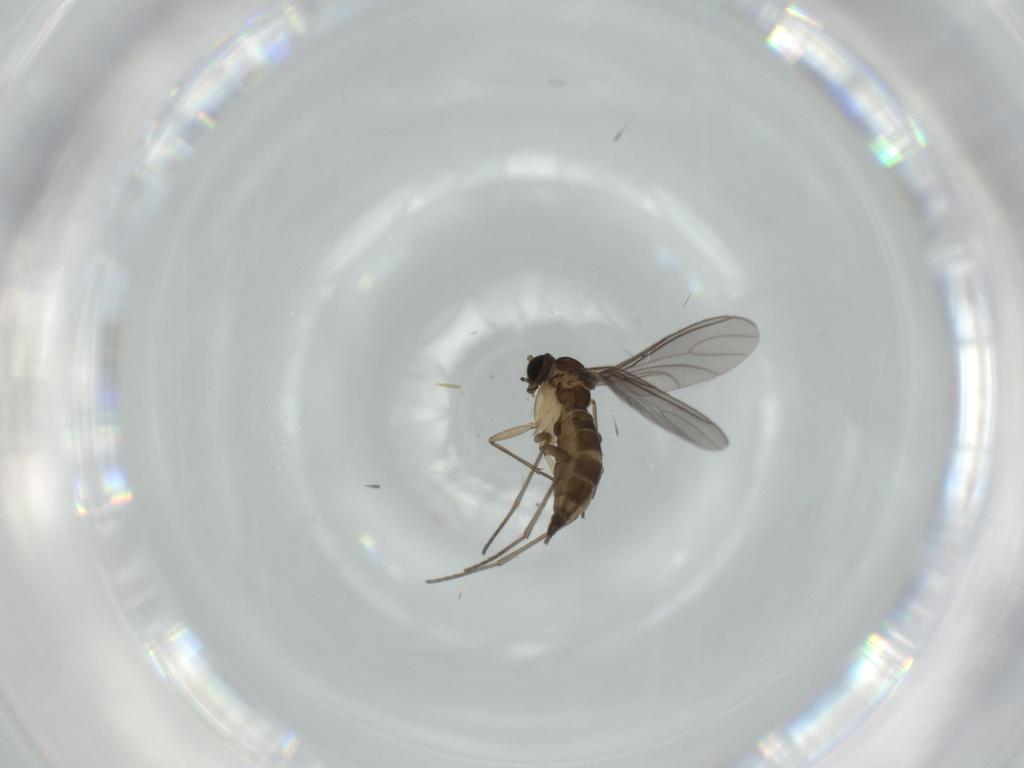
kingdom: Animalia
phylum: Arthropoda
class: Insecta
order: Diptera
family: Sciaridae
